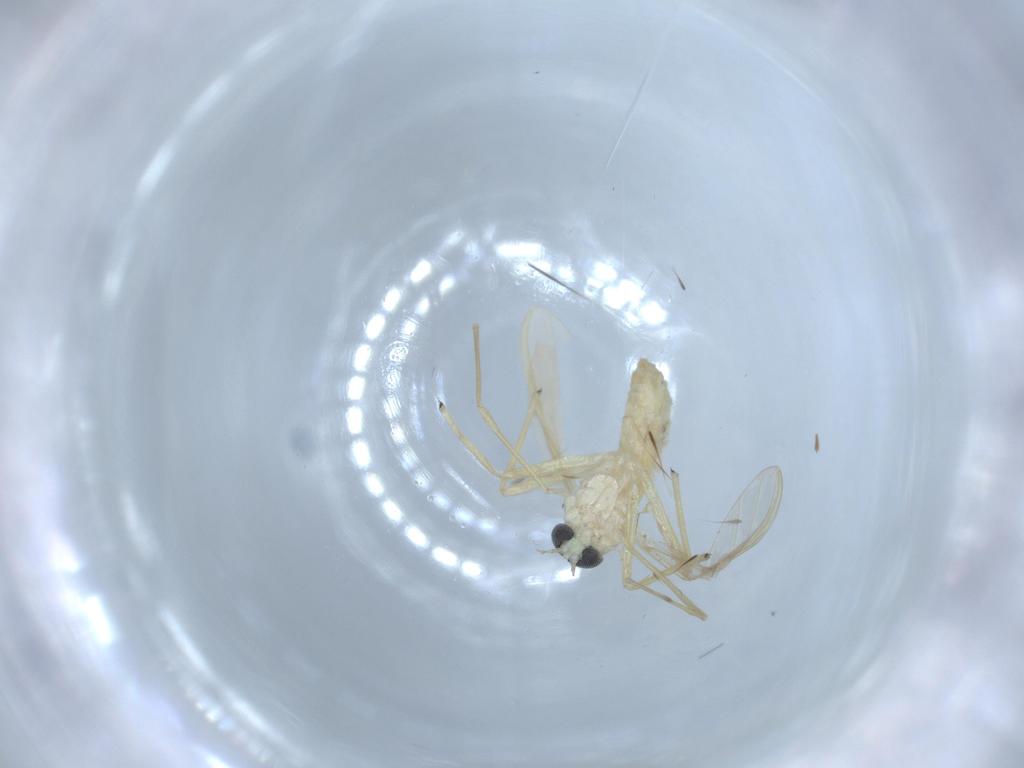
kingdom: Animalia
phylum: Arthropoda
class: Insecta
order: Diptera
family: Chironomidae
